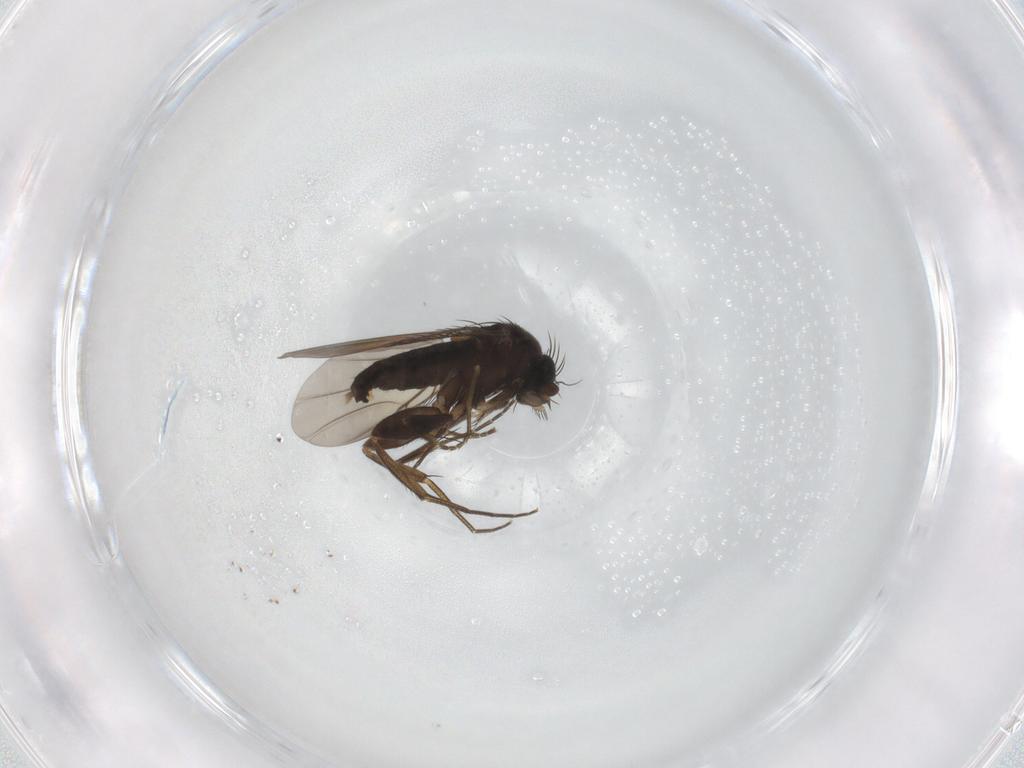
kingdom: Animalia
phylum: Arthropoda
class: Insecta
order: Diptera
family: Phoridae
